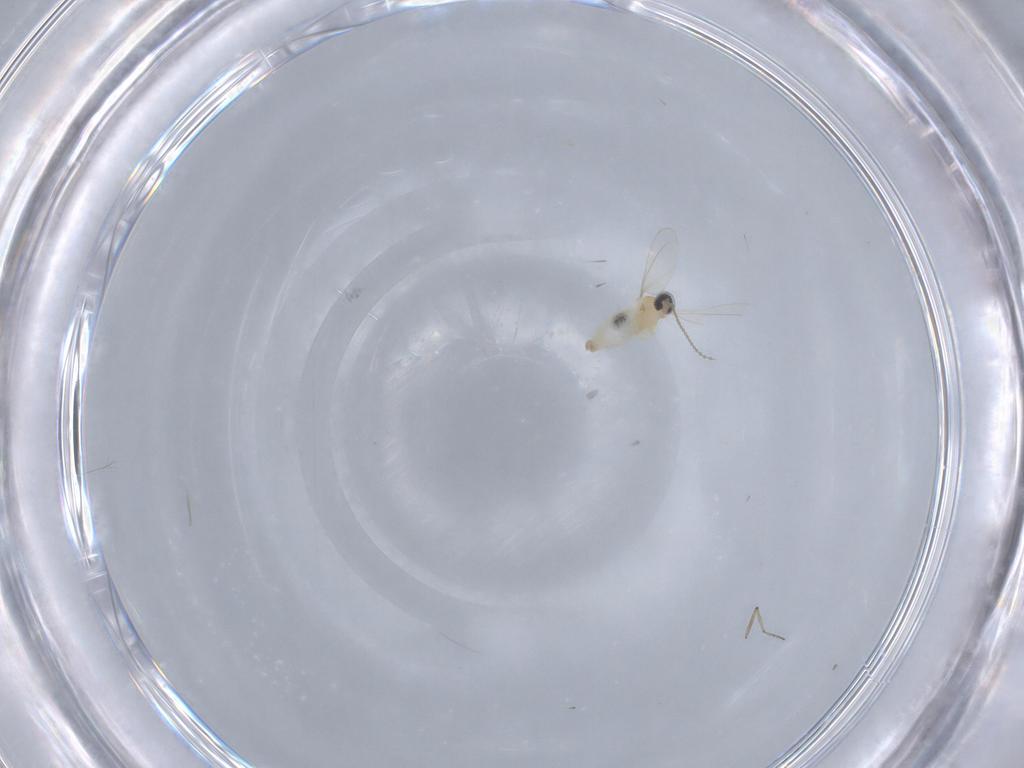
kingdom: Animalia
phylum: Arthropoda
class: Insecta
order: Diptera
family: Cecidomyiidae
